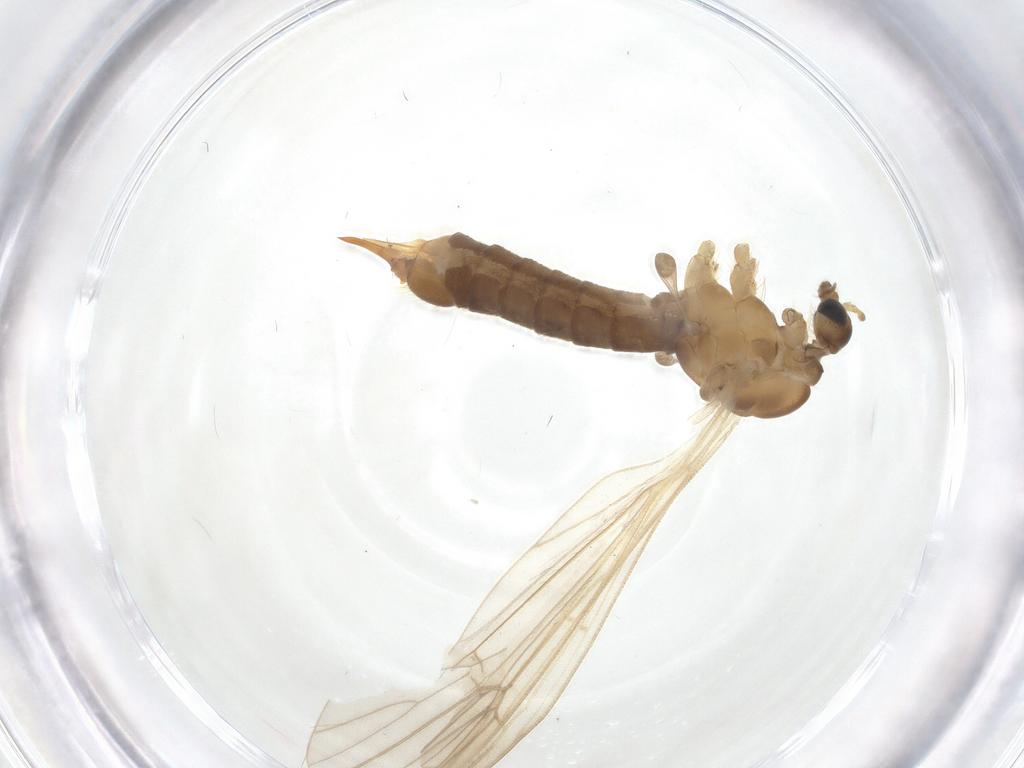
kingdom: Animalia
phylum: Arthropoda
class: Insecta
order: Diptera
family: Limoniidae
